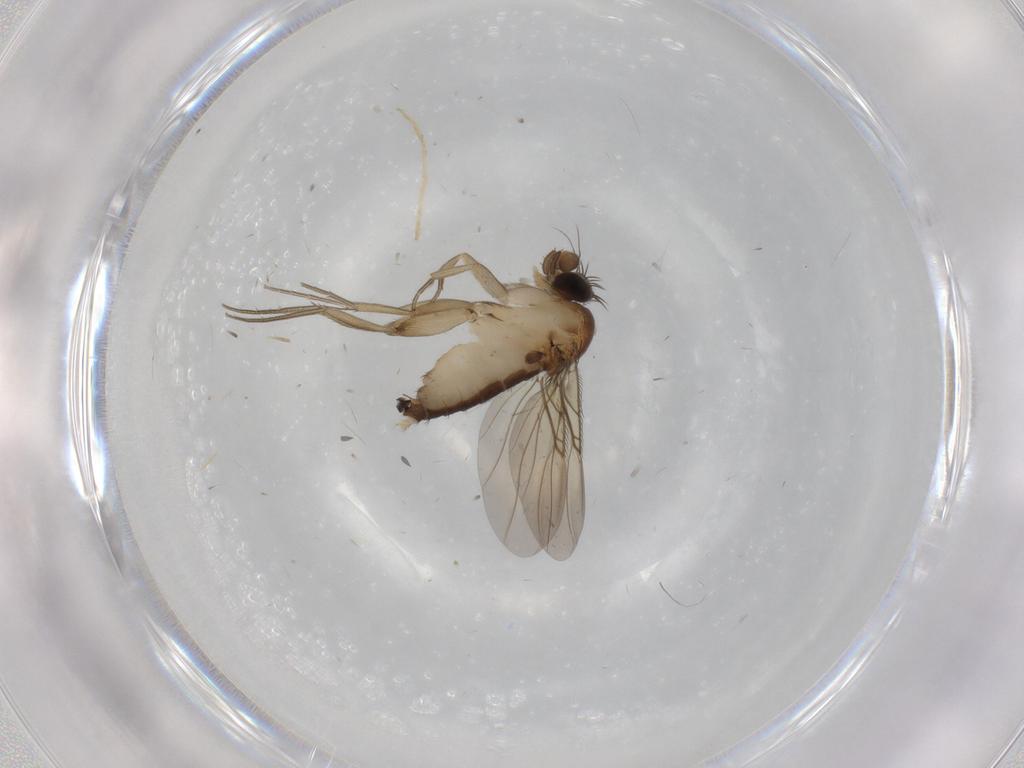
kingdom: Animalia
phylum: Arthropoda
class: Insecta
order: Diptera
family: Phoridae
